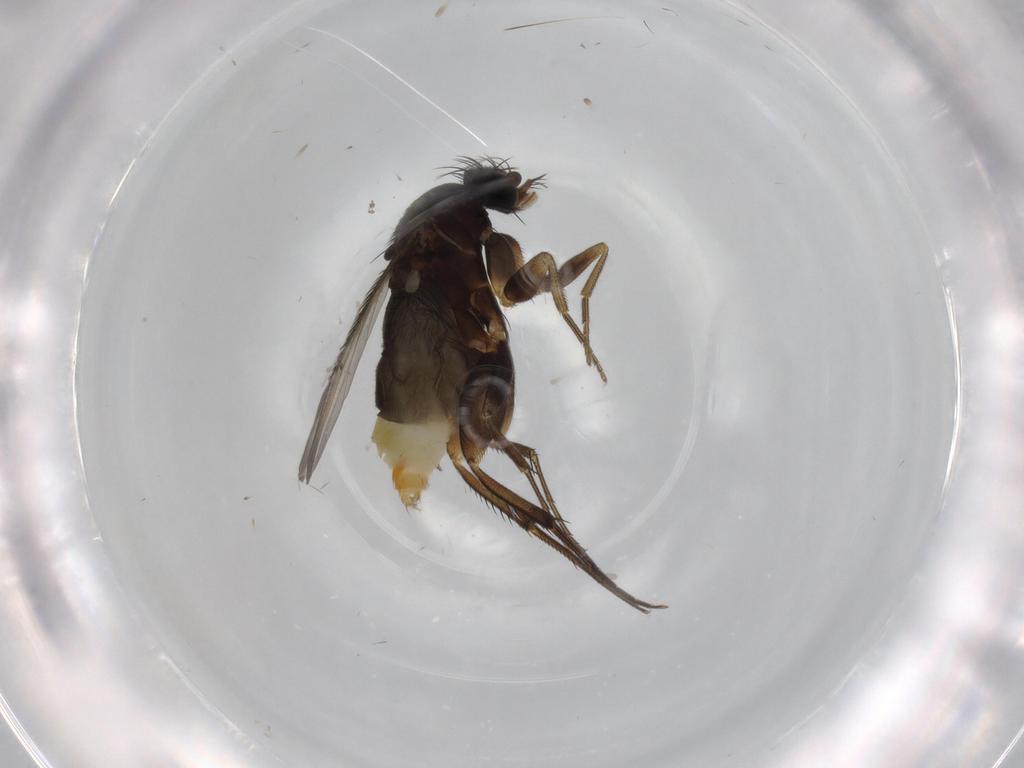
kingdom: Animalia
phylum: Arthropoda
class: Insecta
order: Diptera
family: Phoridae
